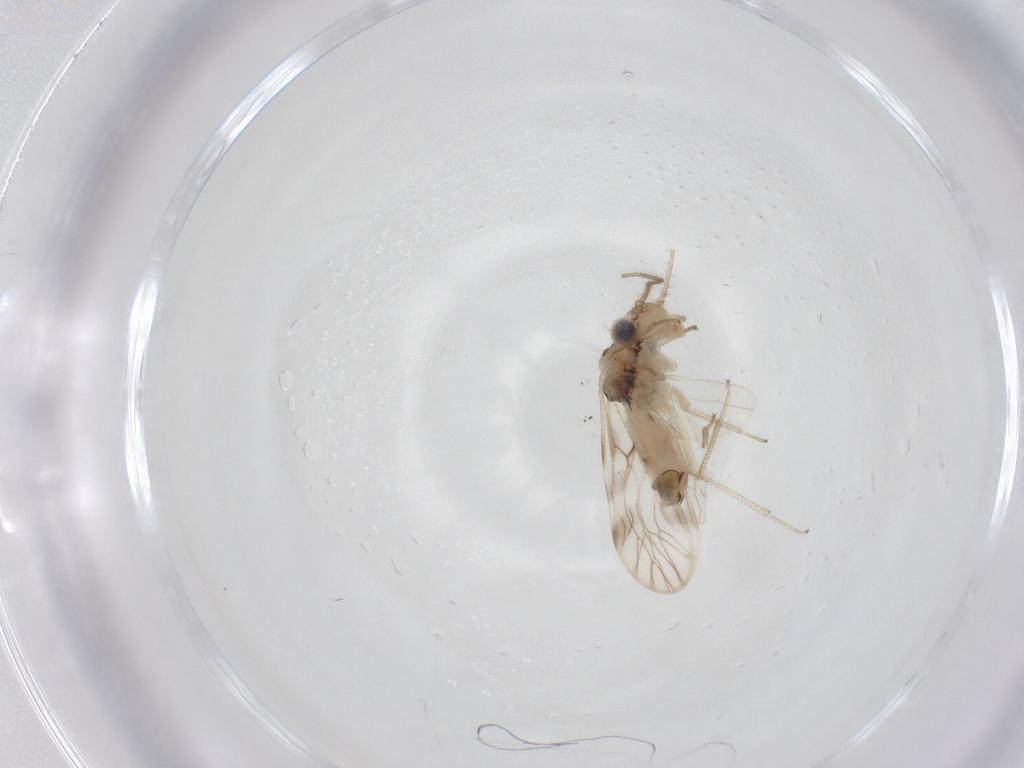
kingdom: Animalia
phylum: Arthropoda
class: Insecta
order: Psocodea
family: Caeciliusidae
